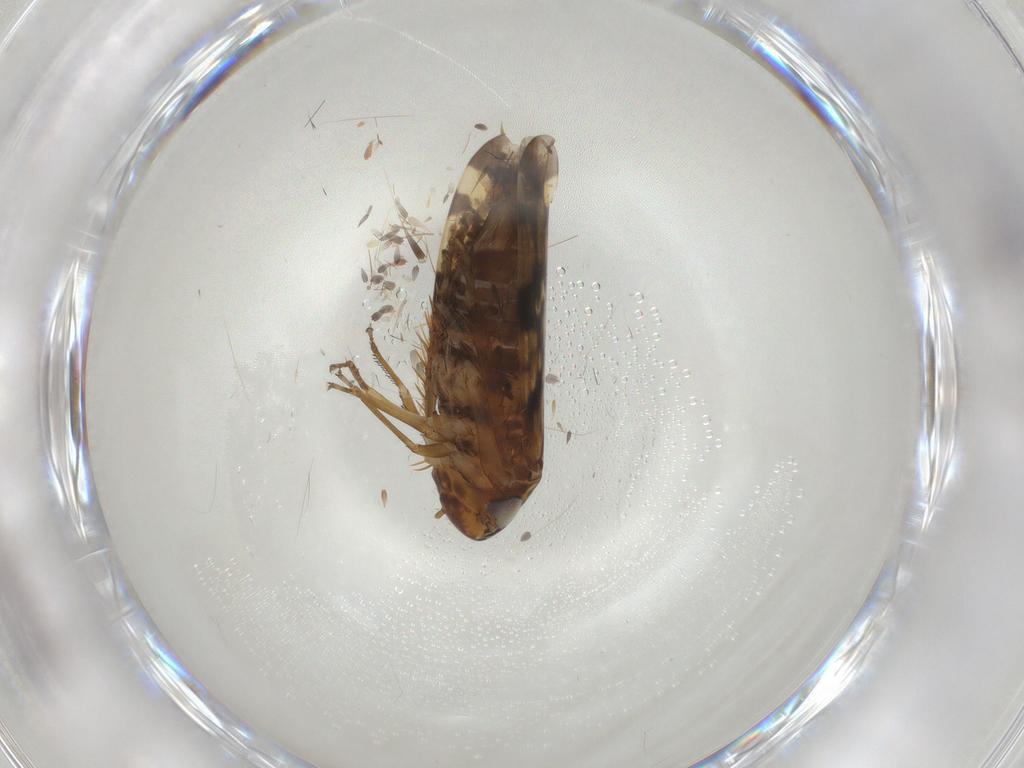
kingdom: Animalia
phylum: Arthropoda
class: Insecta
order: Hemiptera
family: Cicadellidae
